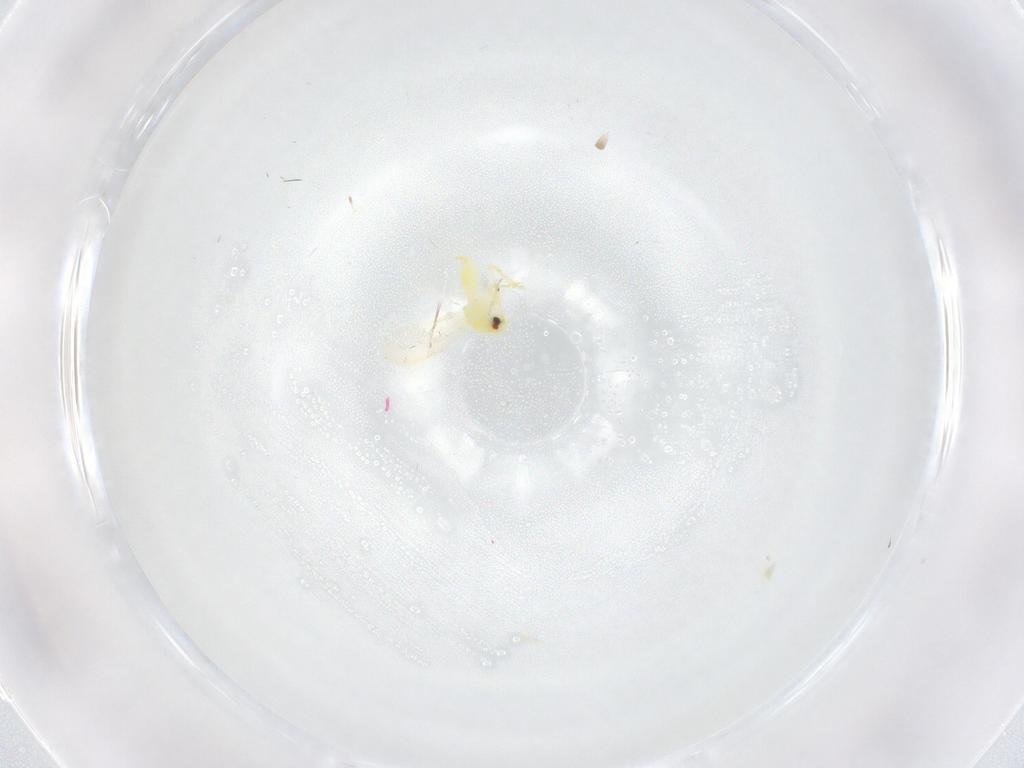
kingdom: Animalia
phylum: Arthropoda
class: Insecta
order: Hemiptera
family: Aleyrodidae
